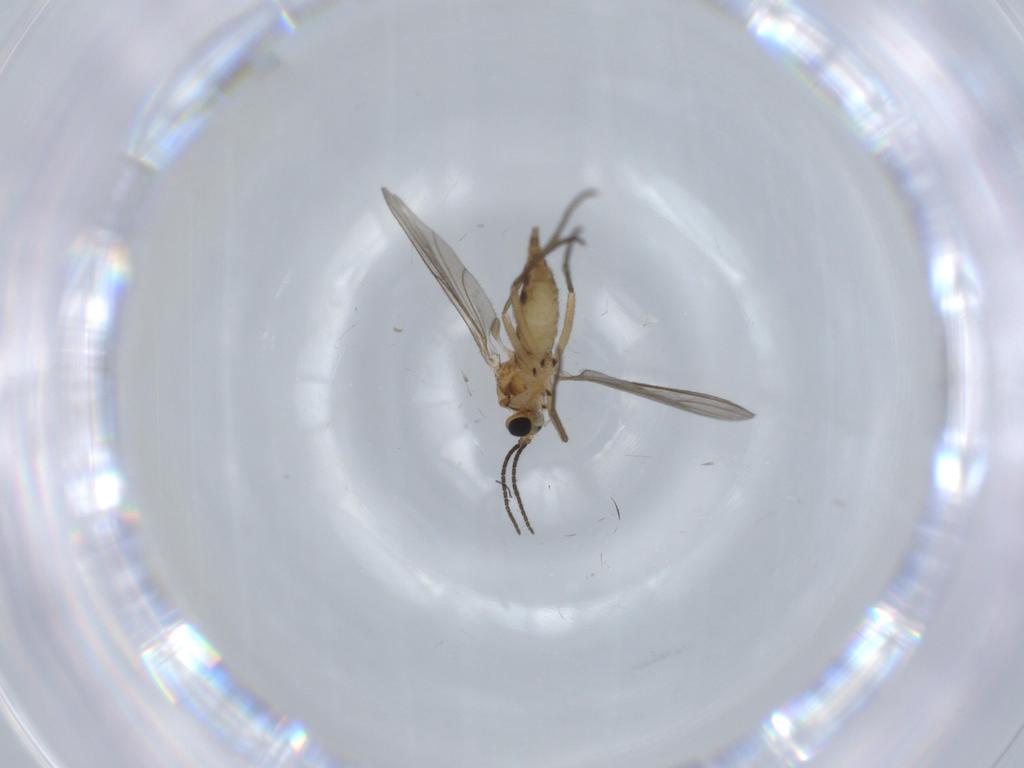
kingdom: Animalia
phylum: Arthropoda
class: Insecta
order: Diptera
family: Sciaridae
